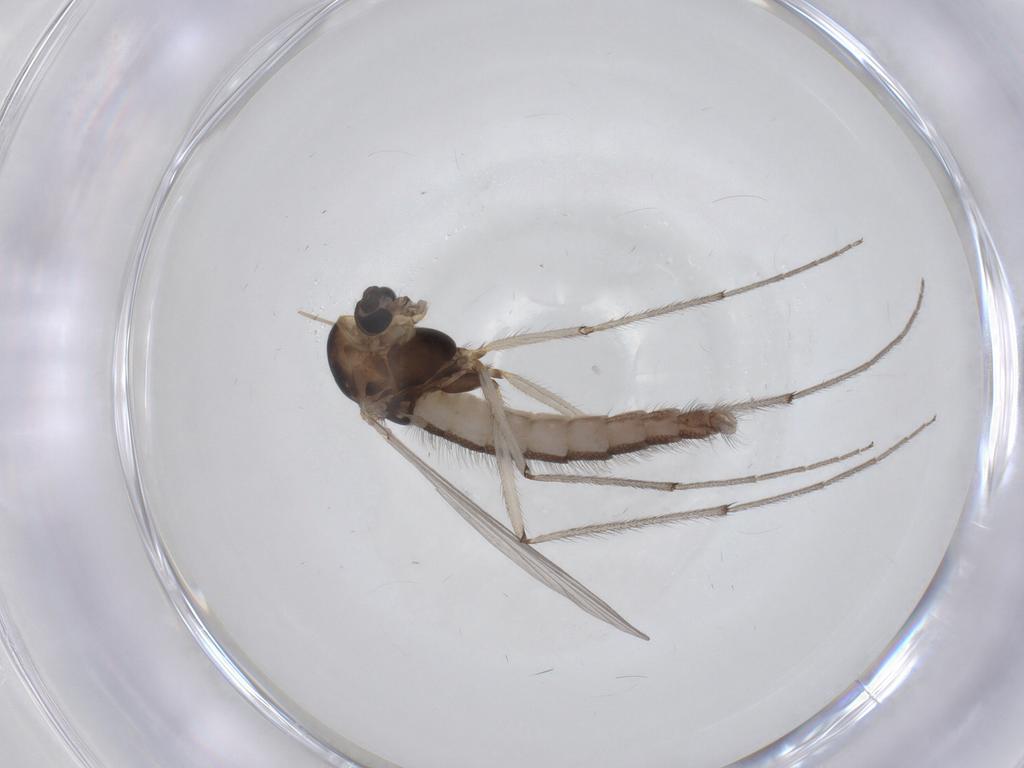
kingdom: Animalia
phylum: Arthropoda
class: Insecta
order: Diptera
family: Chironomidae
